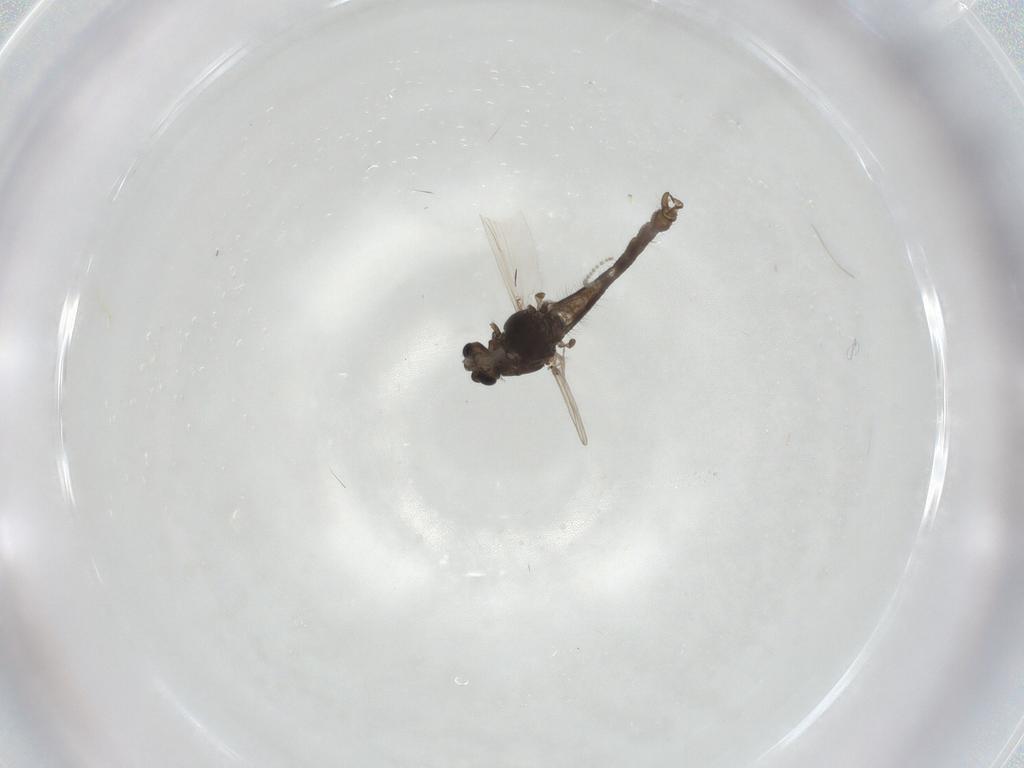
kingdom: Animalia
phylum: Arthropoda
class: Insecta
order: Diptera
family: Chironomidae
